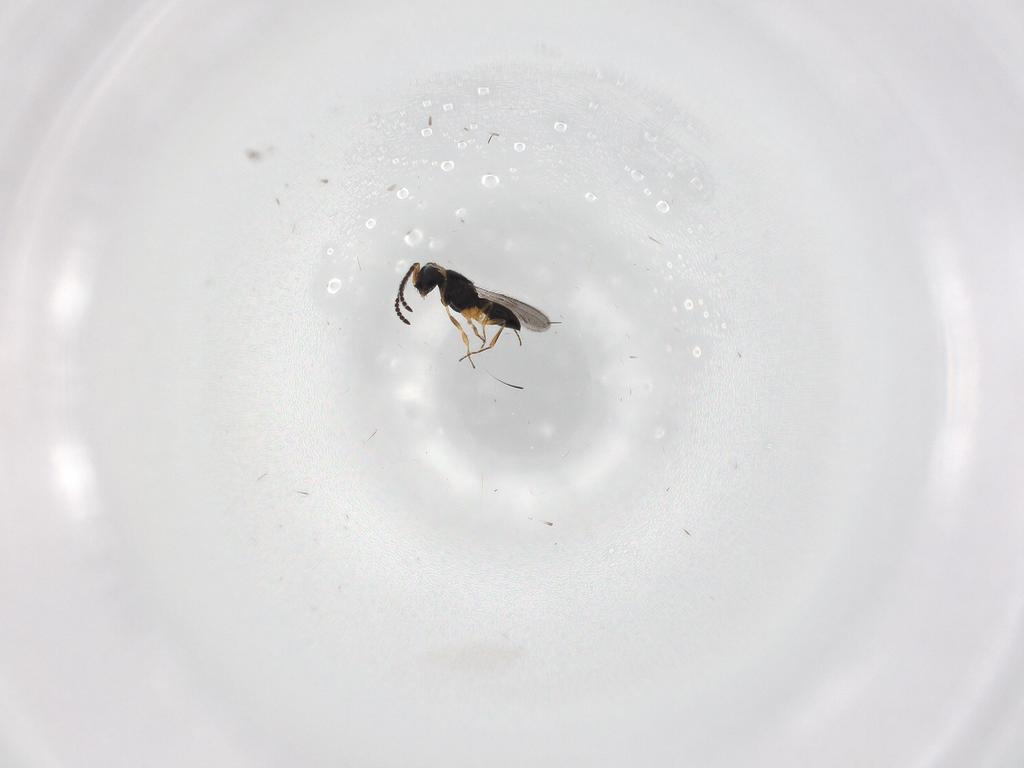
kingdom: Animalia
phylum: Arthropoda
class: Insecta
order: Hymenoptera
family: Scelionidae
